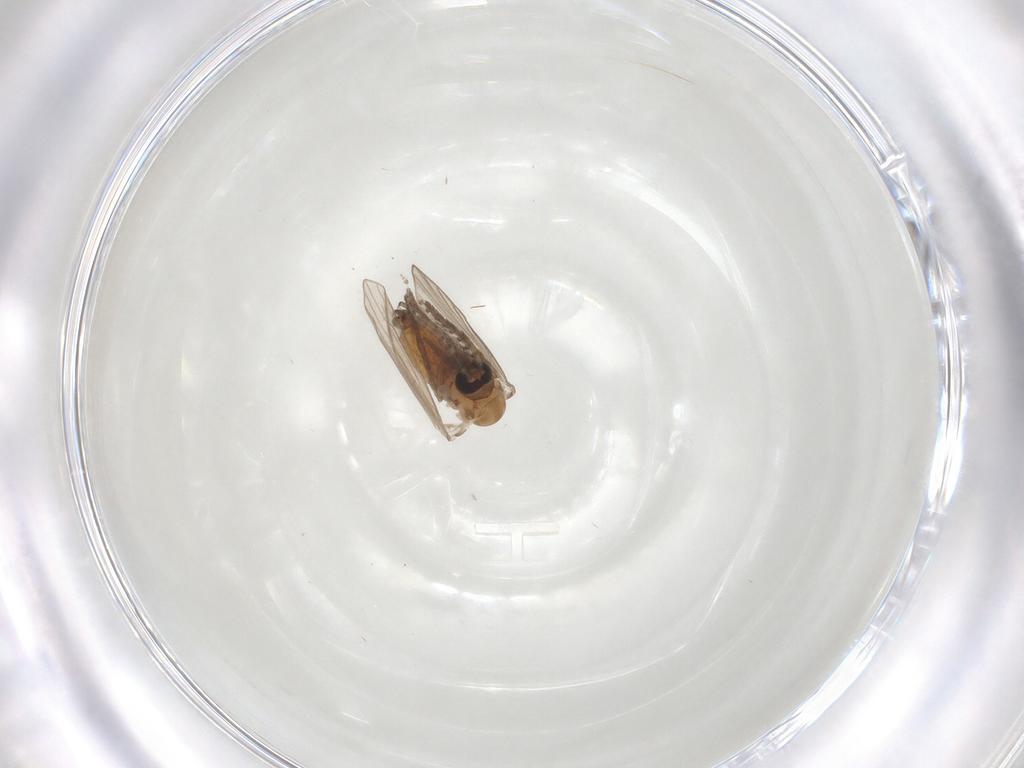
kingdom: Animalia
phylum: Arthropoda
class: Insecta
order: Diptera
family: Psychodidae
